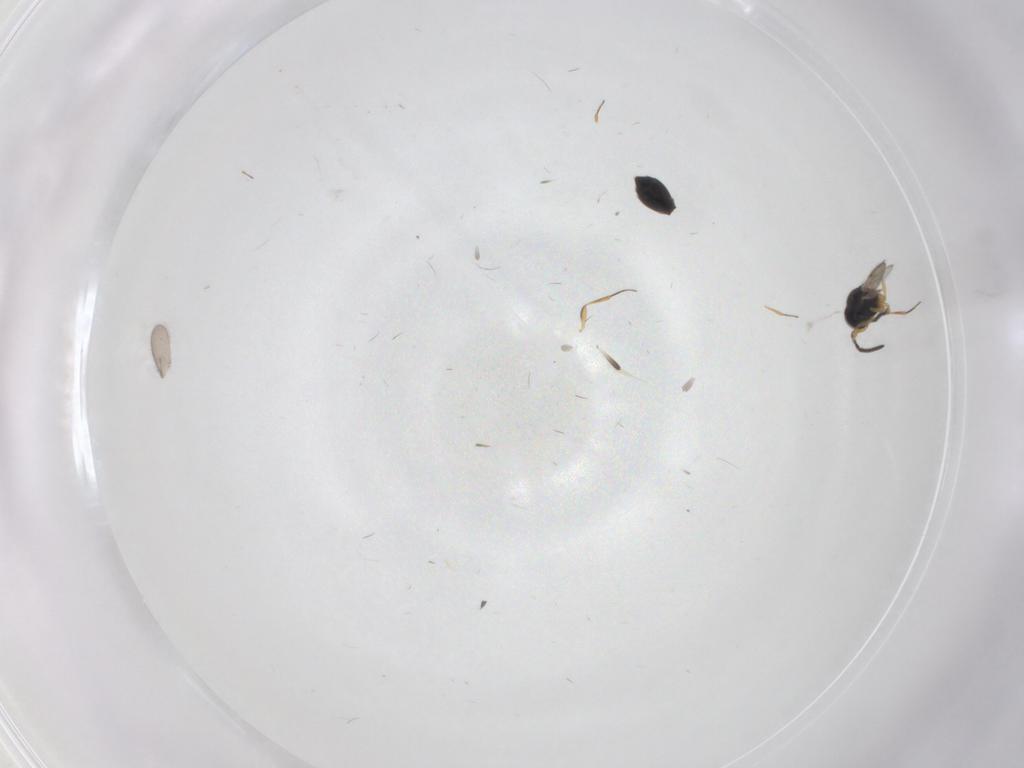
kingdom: Animalia
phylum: Arthropoda
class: Insecta
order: Hymenoptera
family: Scelionidae
